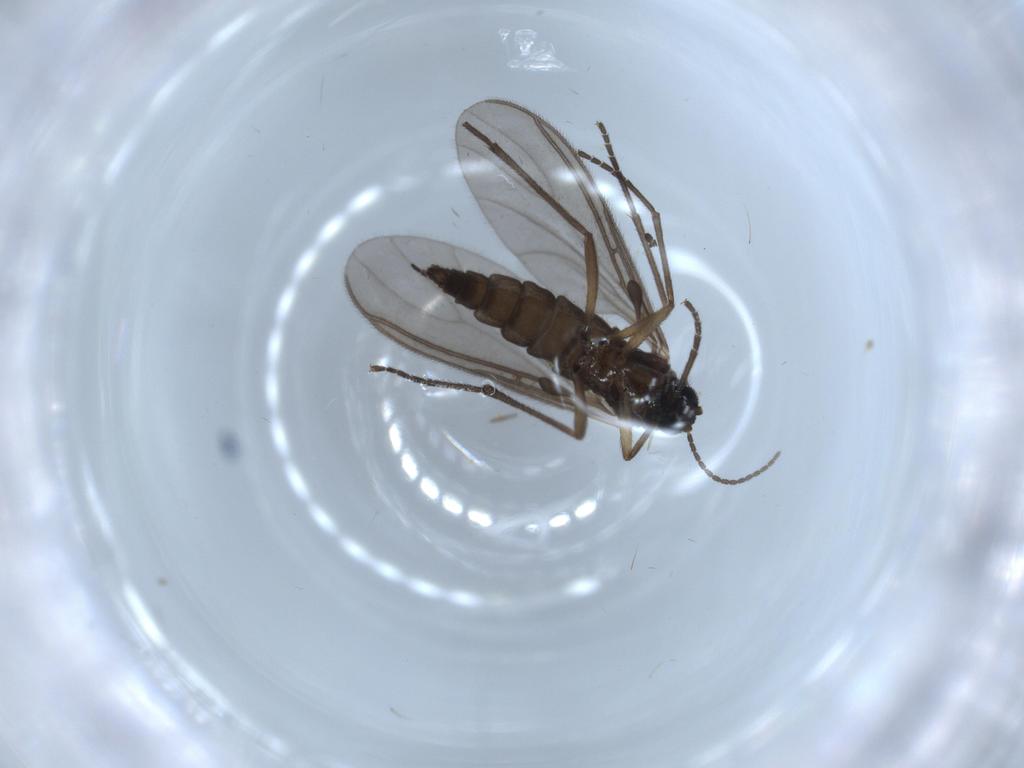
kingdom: Animalia
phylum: Arthropoda
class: Insecta
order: Diptera
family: Sciaridae
